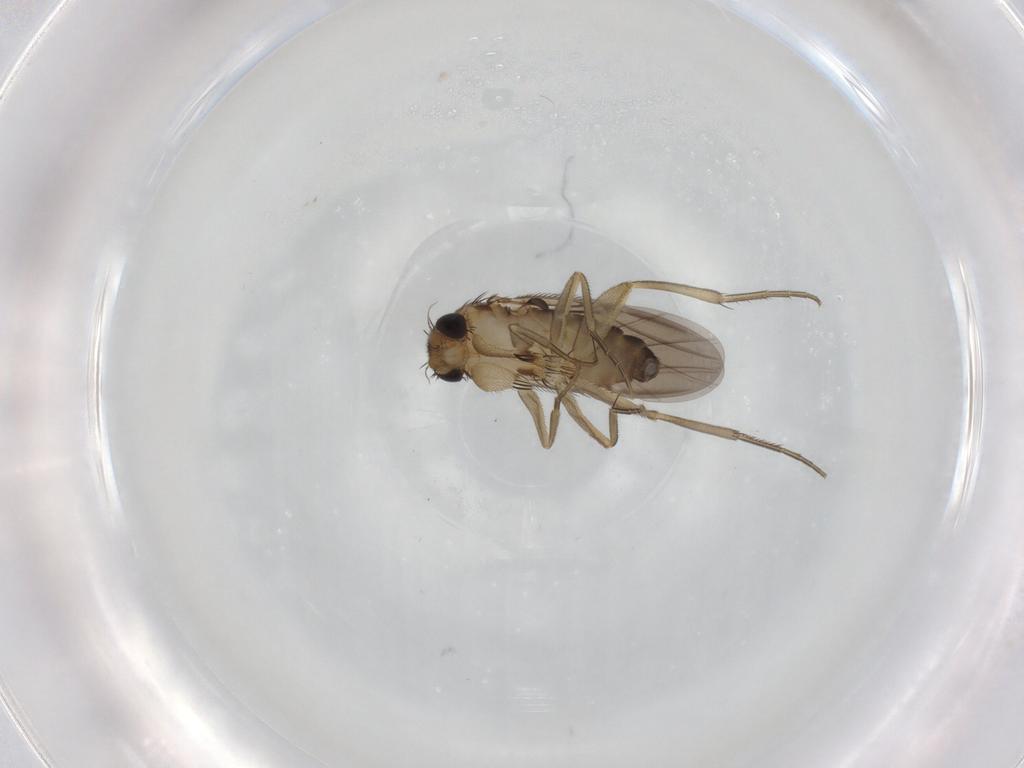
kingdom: Animalia
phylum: Arthropoda
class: Insecta
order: Diptera
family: Phoridae
